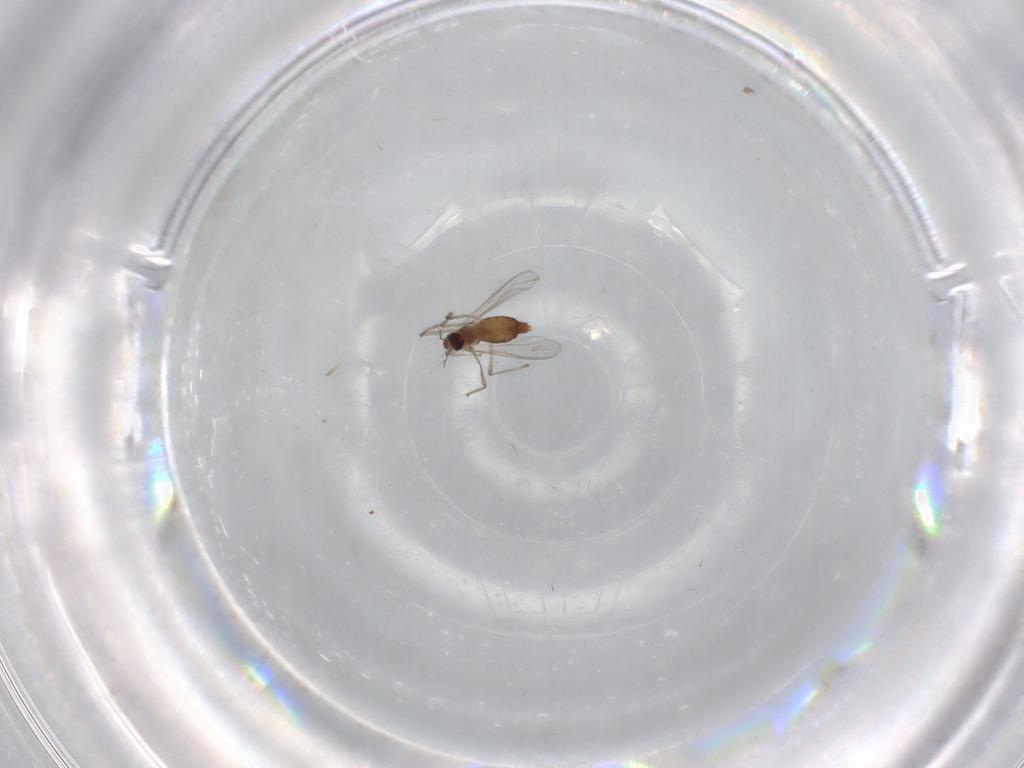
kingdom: Animalia
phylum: Arthropoda
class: Insecta
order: Diptera
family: Chironomidae
